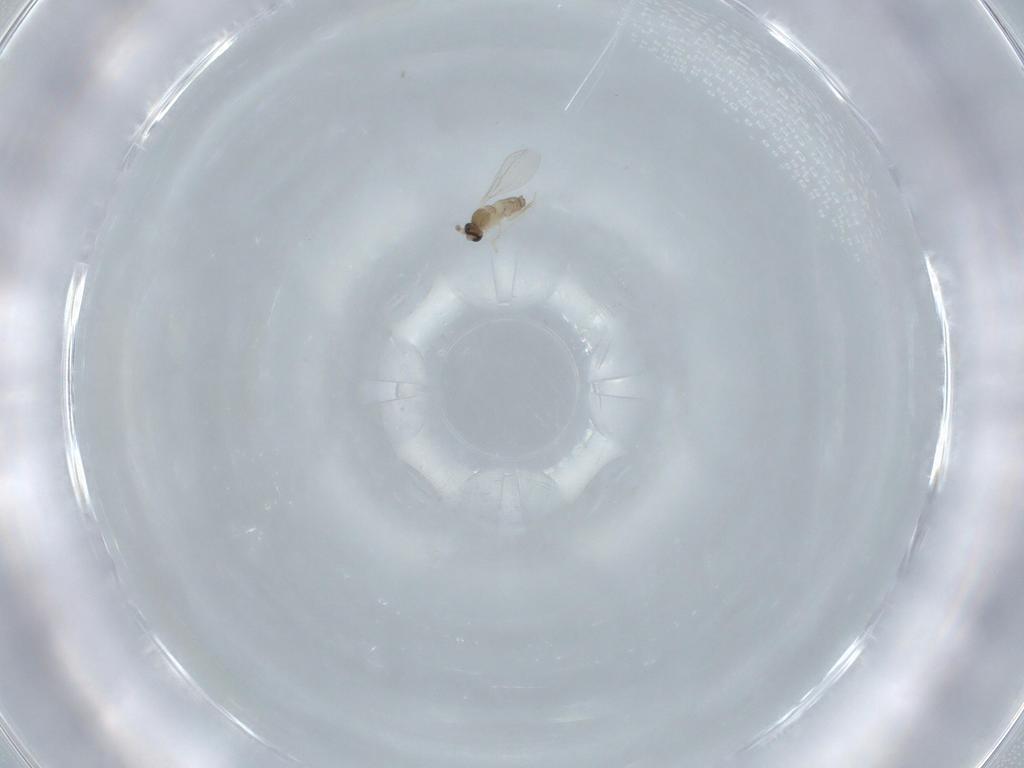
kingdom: Animalia
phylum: Arthropoda
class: Insecta
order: Diptera
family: Cecidomyiidae
